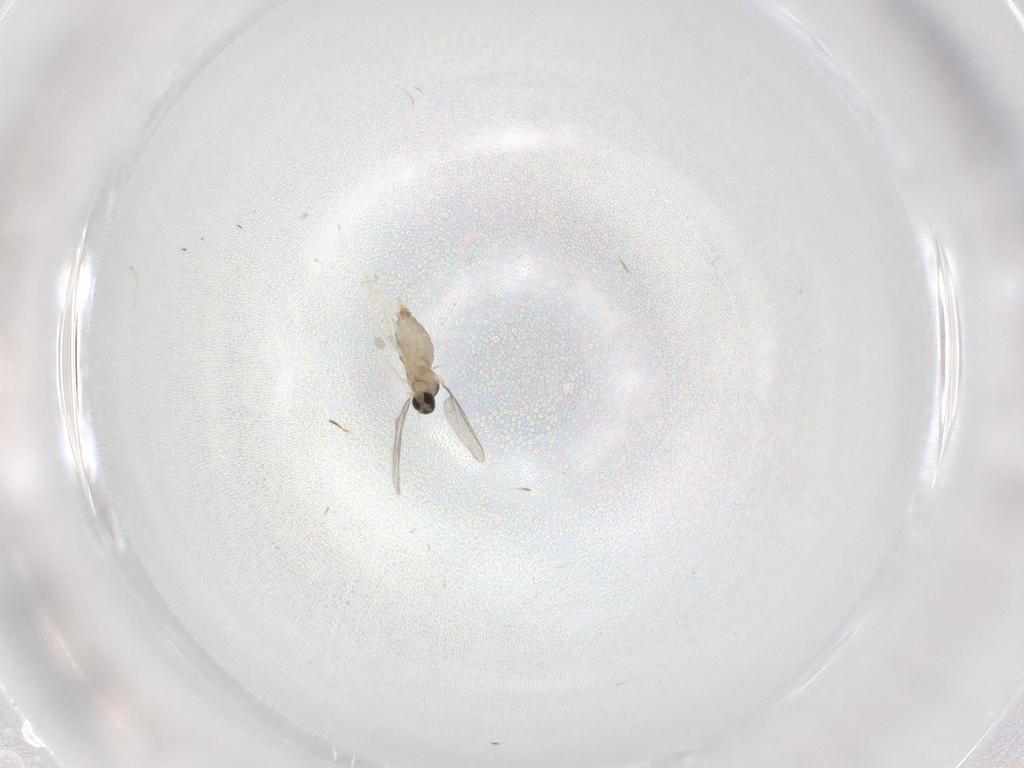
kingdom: Animalia
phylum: Arthropoda
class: Insecta
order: Diptera
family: Cecidomyiidae
